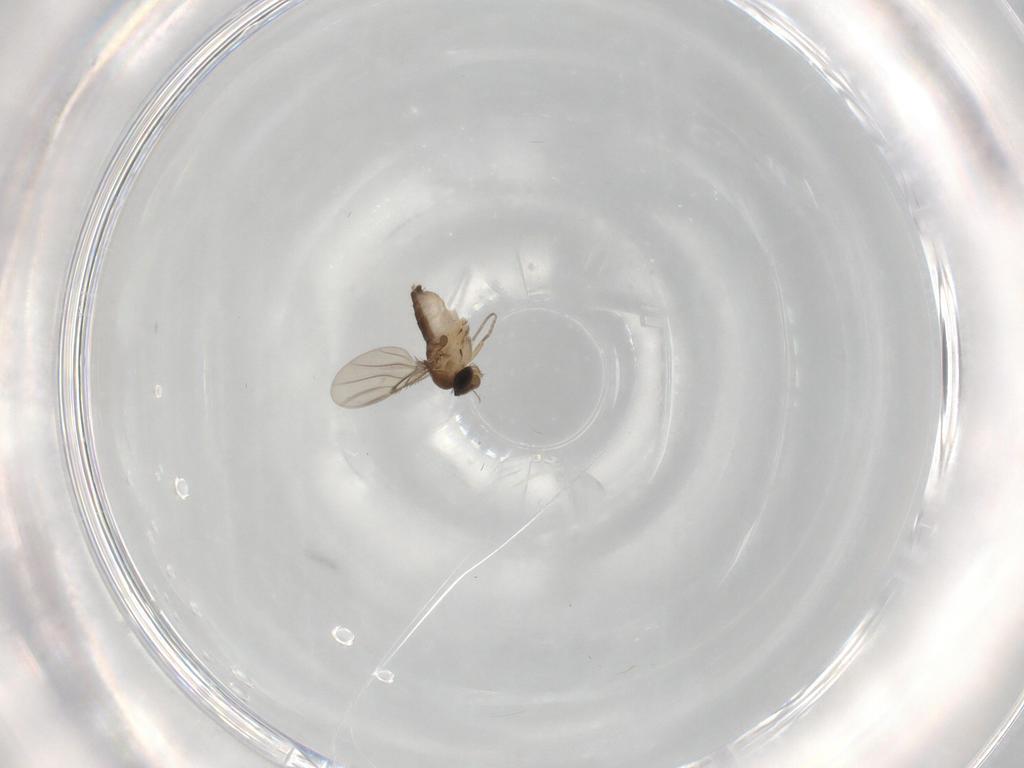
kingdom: Animalia
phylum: Arthropoda
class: Insecta
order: Diptera
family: Phoridae
